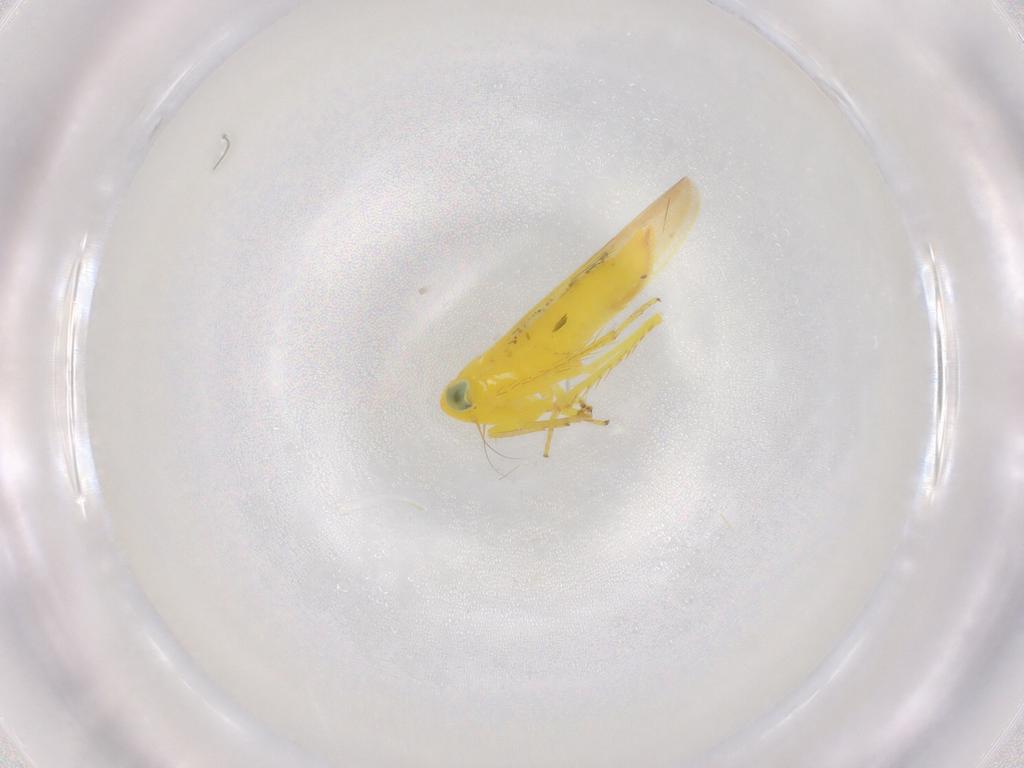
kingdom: Animalia
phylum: Arthropoda
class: Insecta
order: Hemiptera
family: Cicadellidae
